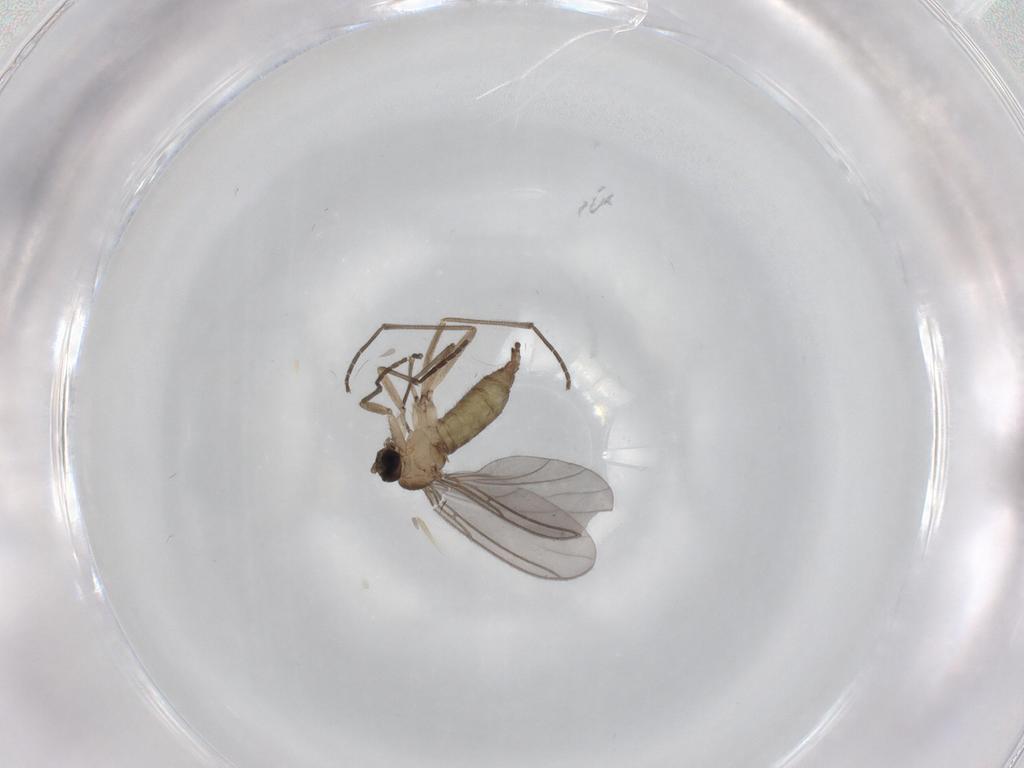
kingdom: Animalia
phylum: Arthropoda
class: Insecta
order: Diptera
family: Sciaridae
